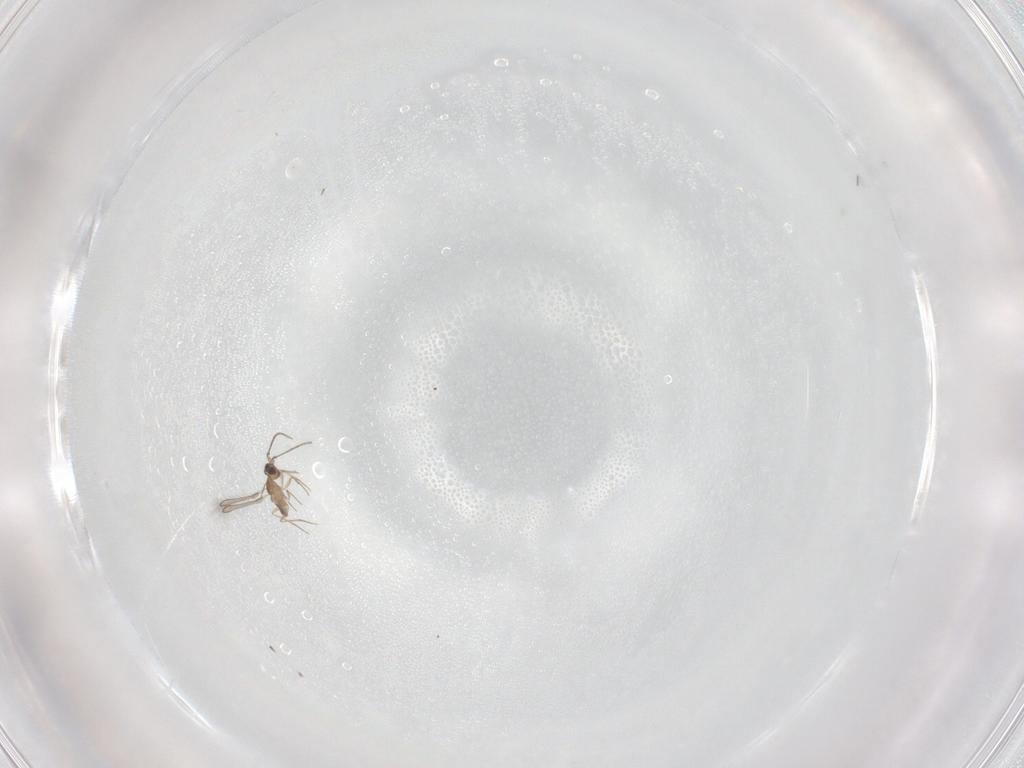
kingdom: Animalia
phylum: Arthropoda
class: Insecta
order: Hymenoptera
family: Mymaridae
